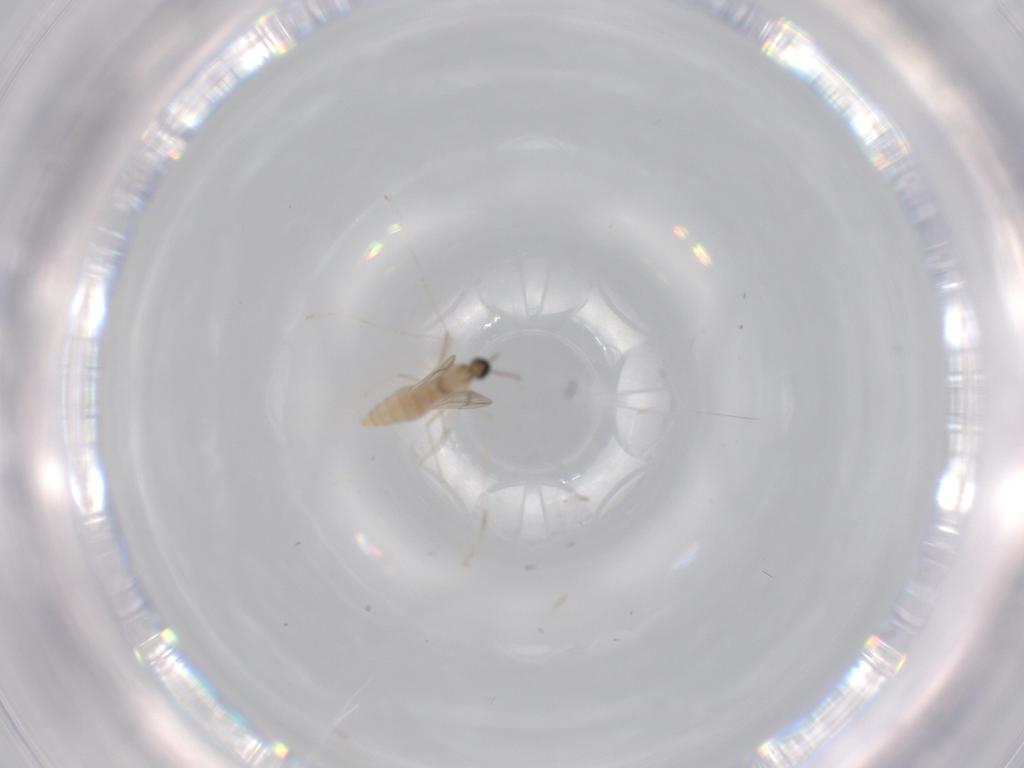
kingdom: Animalia
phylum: Arthropoda
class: Insecta
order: Diptera
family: Cecidomyiidae
